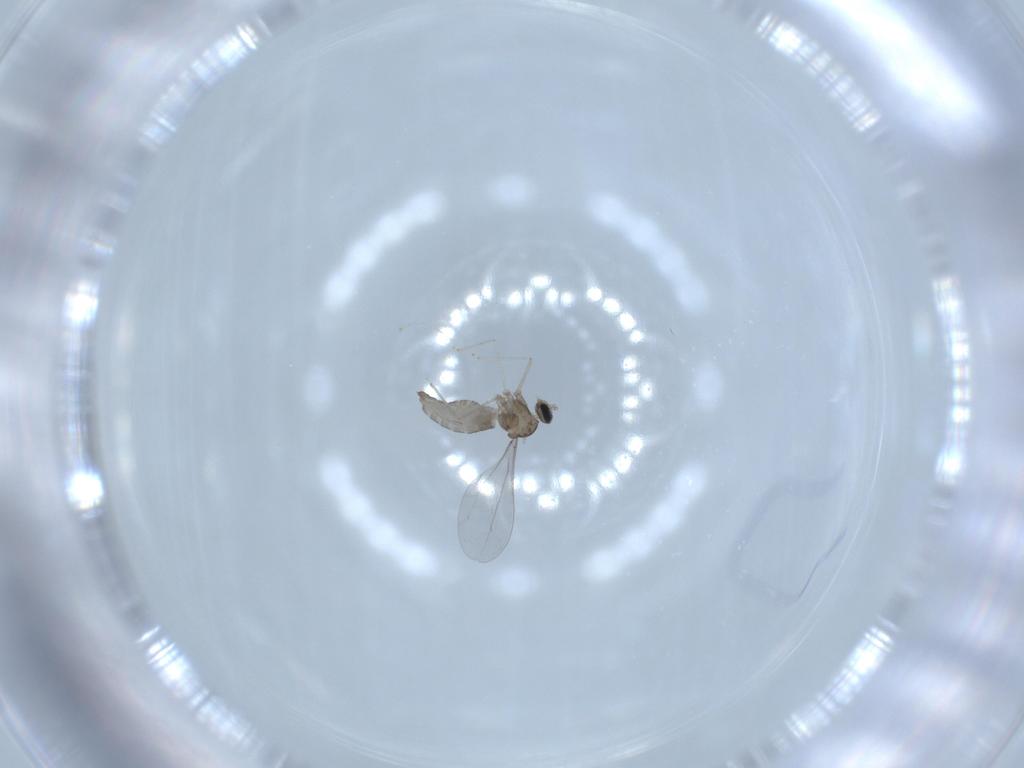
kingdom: Animalia
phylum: Arthropoda
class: Insecta
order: Diptera
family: Cecidomyiidae
